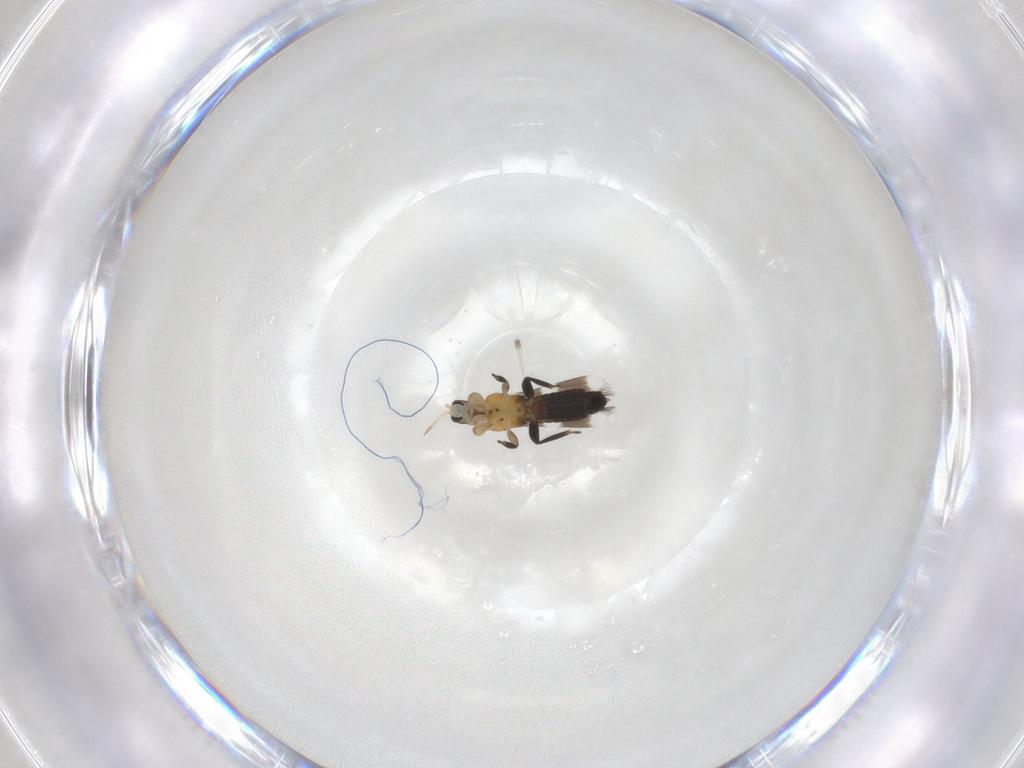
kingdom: Animalia
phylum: Arthropoda
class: Insecta
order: Thysanoptera
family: Aeolothripidae
